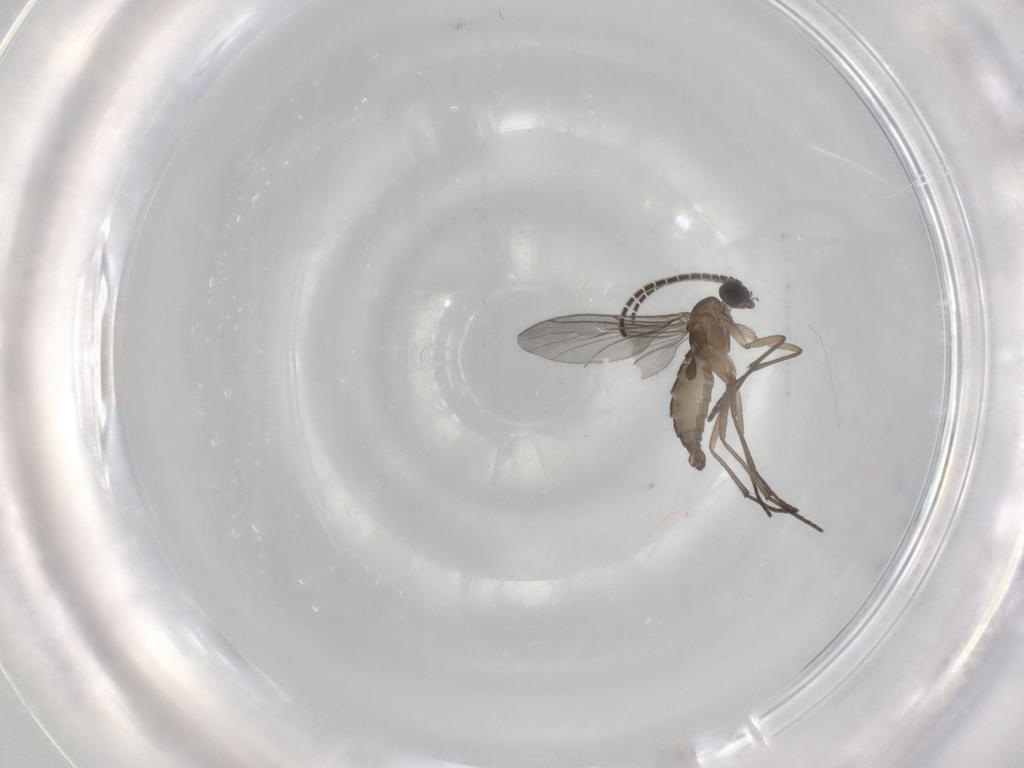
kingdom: Animalia
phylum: Arthropoda
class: Insecta
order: Diptera
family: Sciaridae
